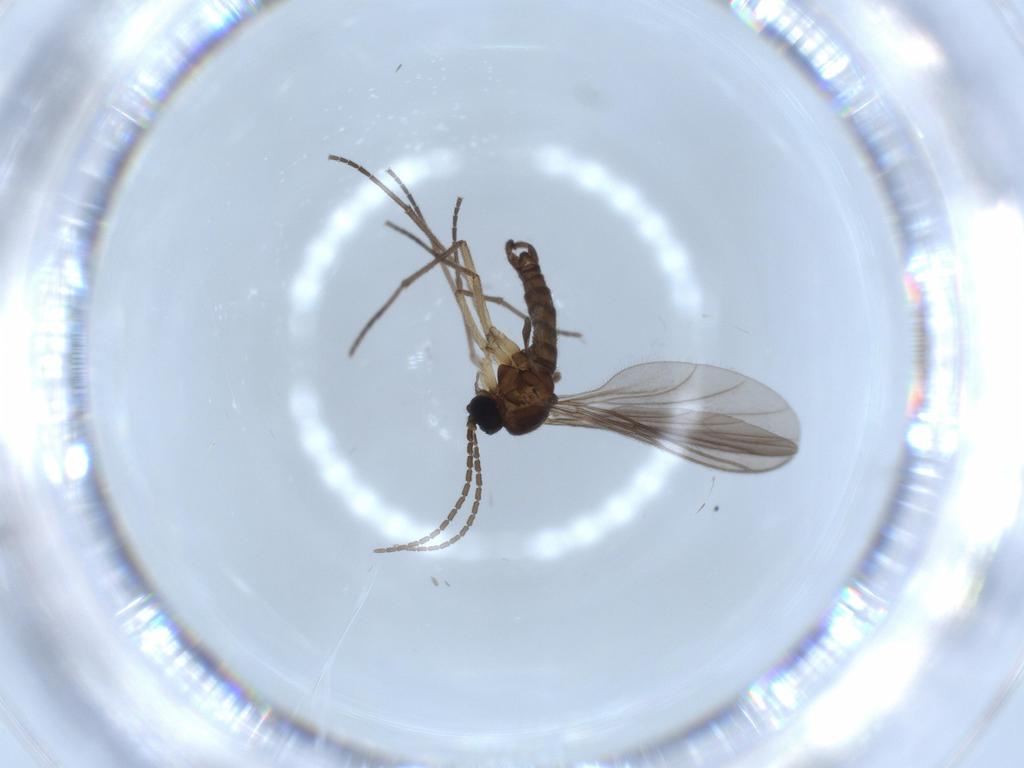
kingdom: Animalia
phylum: Arthropoda
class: Insecta
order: Diptera
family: Sciaridae
